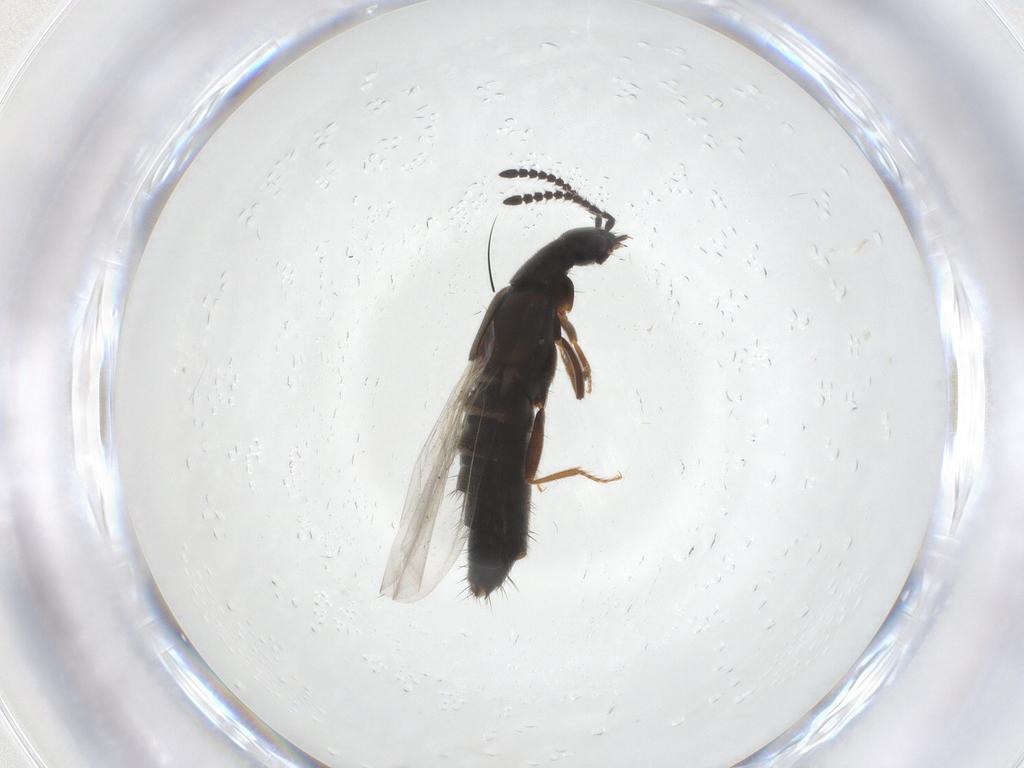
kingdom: Animalia
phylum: Arthropoda
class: Insecta
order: Coleoptera
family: Staphylinidae
